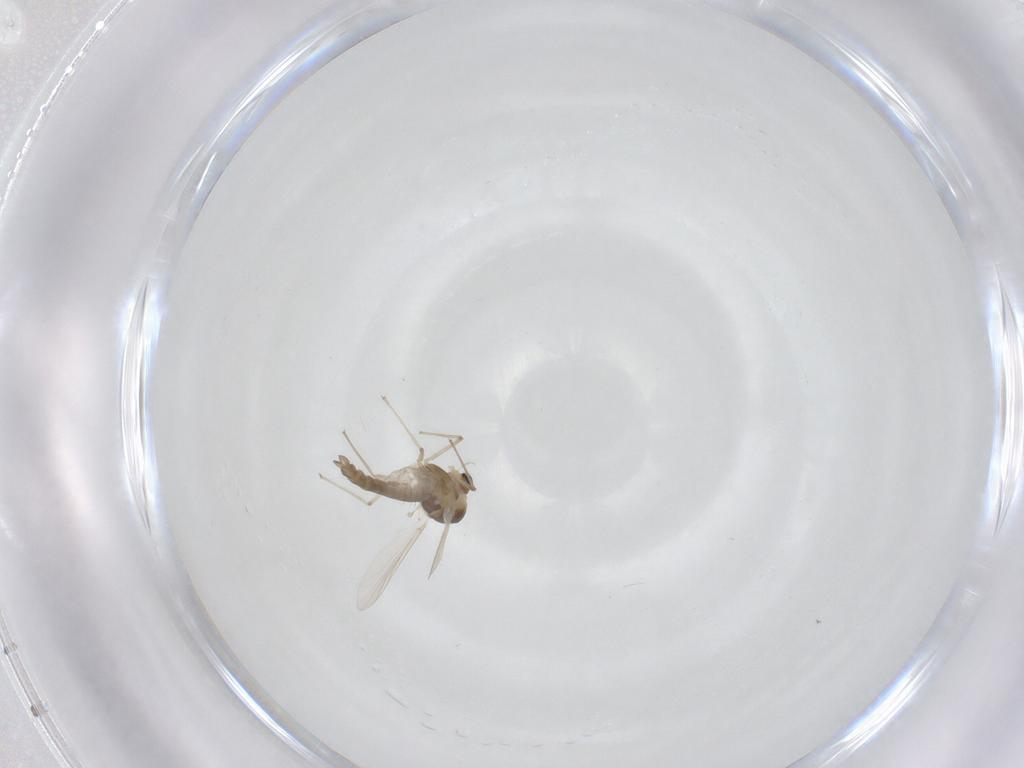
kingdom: Animalia
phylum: Arthropoda
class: Insecta
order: Diptera
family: Chironomidae
